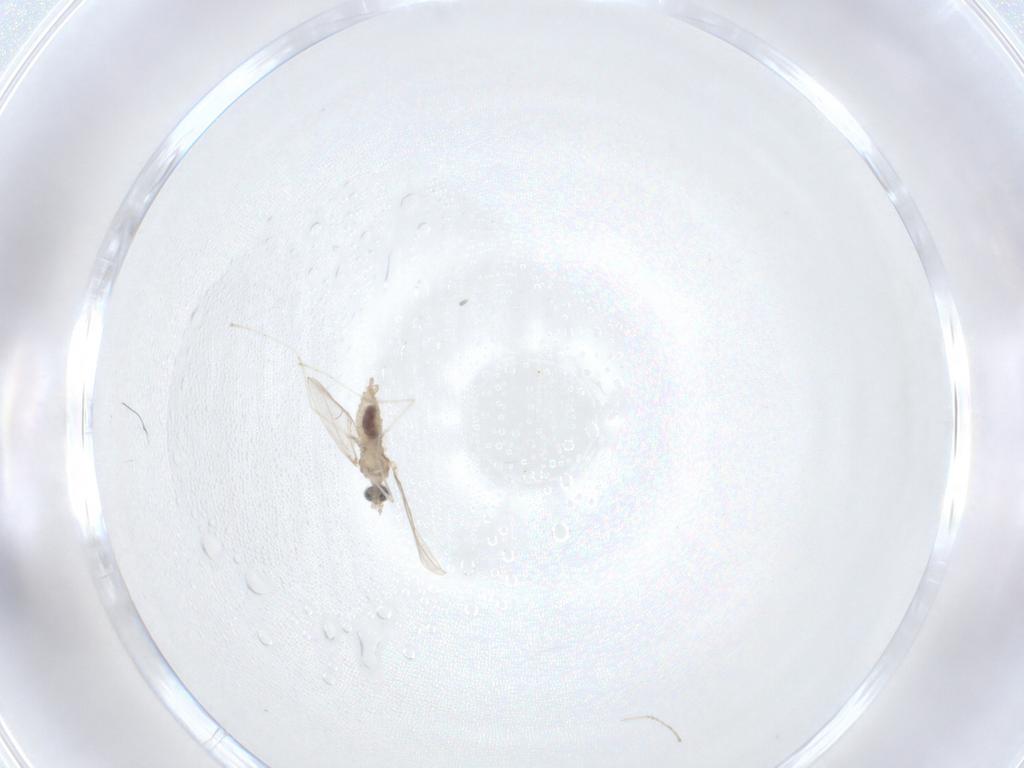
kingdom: Animalia
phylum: Arthropoda
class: Insecta
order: Diptera
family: Cecidomyiidae
